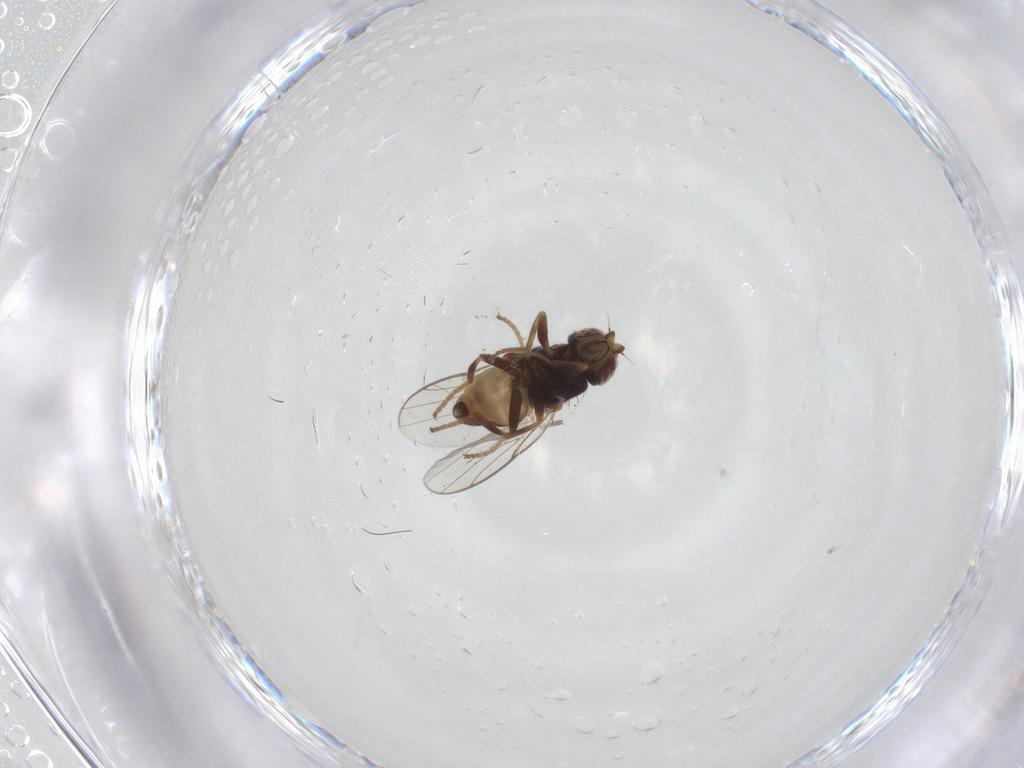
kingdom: Animalia
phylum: Arthropoda
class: Insecta
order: Diptera
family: Chloropidae
